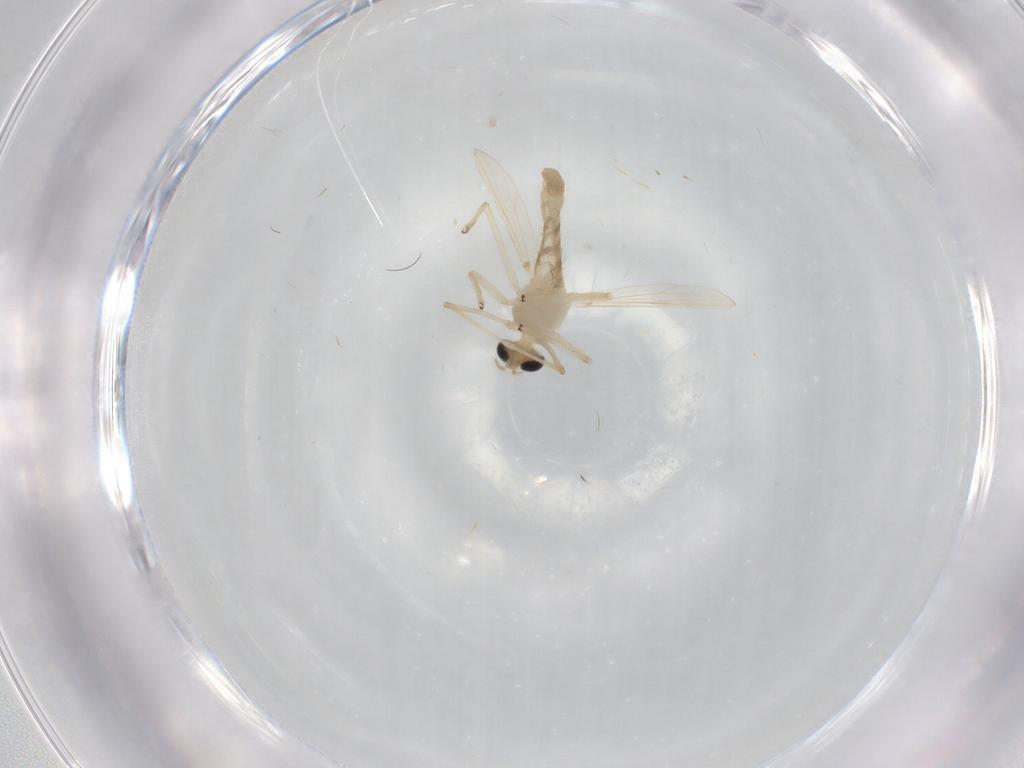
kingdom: Animalia
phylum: Arthropoda
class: Insecta
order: Diptera
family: Chironomidae
